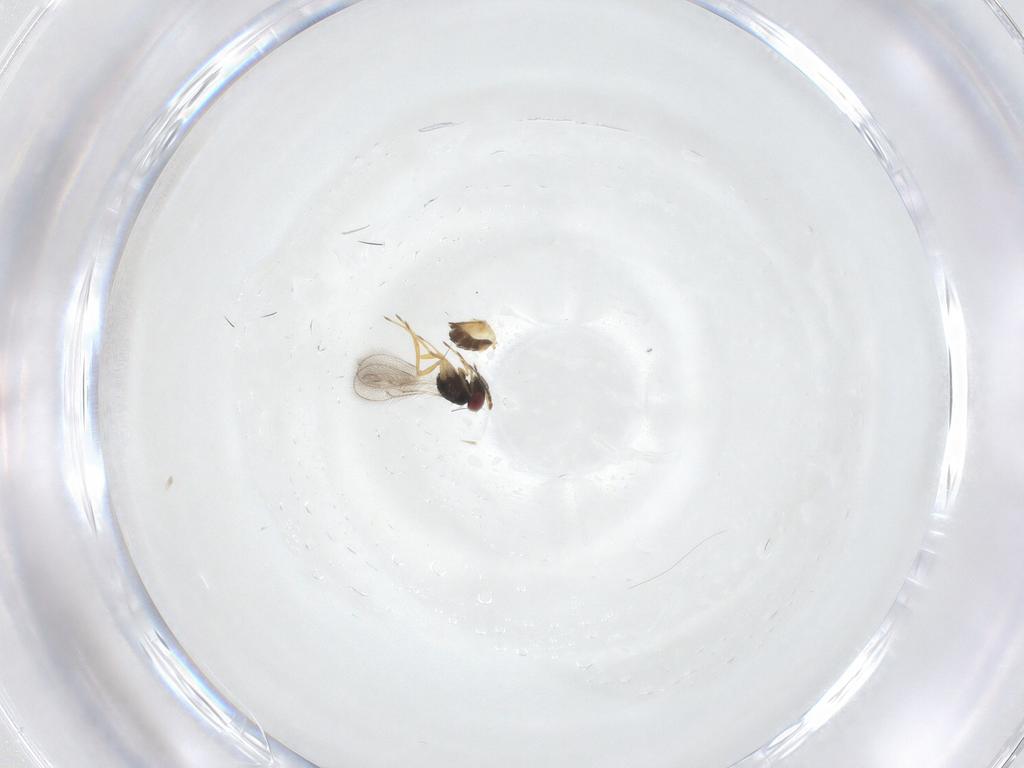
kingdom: Animalia
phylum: Arthropoda
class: Insecta
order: Hymenoptera
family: Eulophidae
